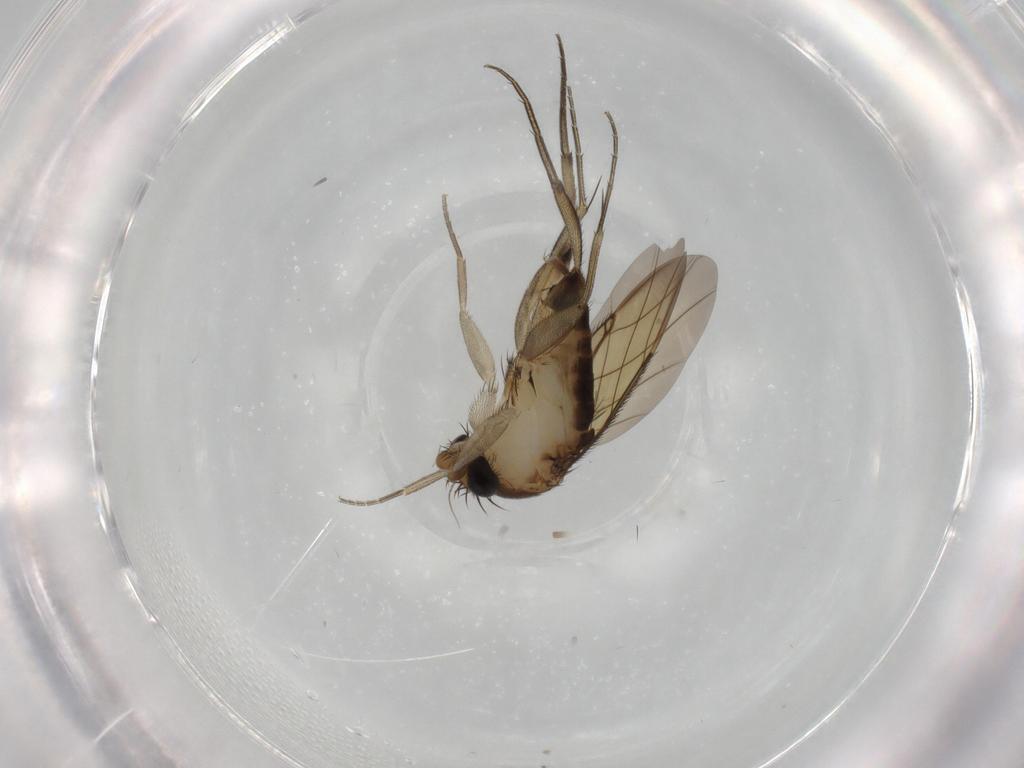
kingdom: Animalia
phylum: Arthropoda
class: Insecta
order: Diptera
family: Phoridae
